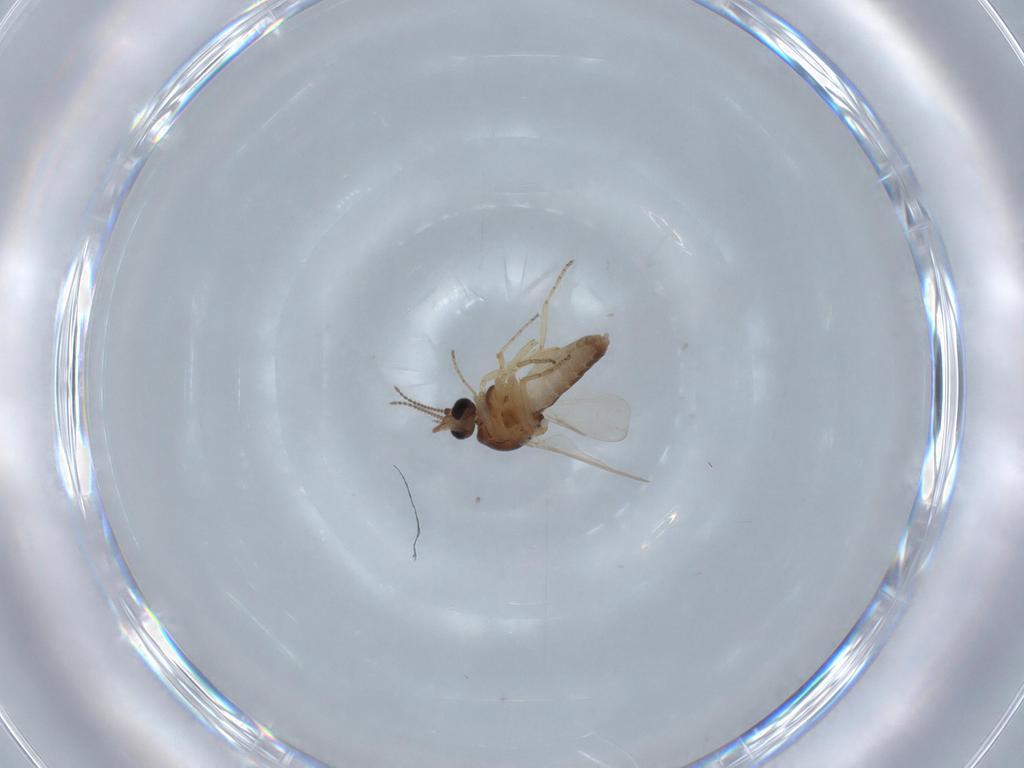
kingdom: Animalia
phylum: Arthropoda
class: Insecta
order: Diptera
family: Ceratopogonidae
